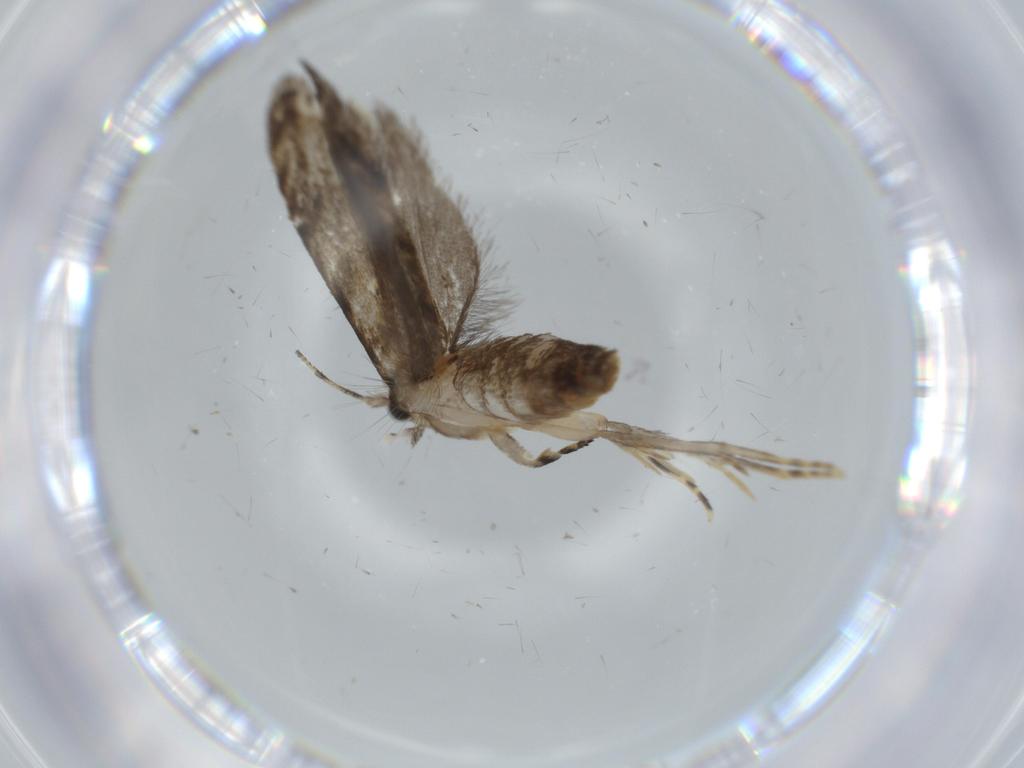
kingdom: Animalia
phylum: Arthropoda
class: Insecta
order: Lepidoptera
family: Tineidae
